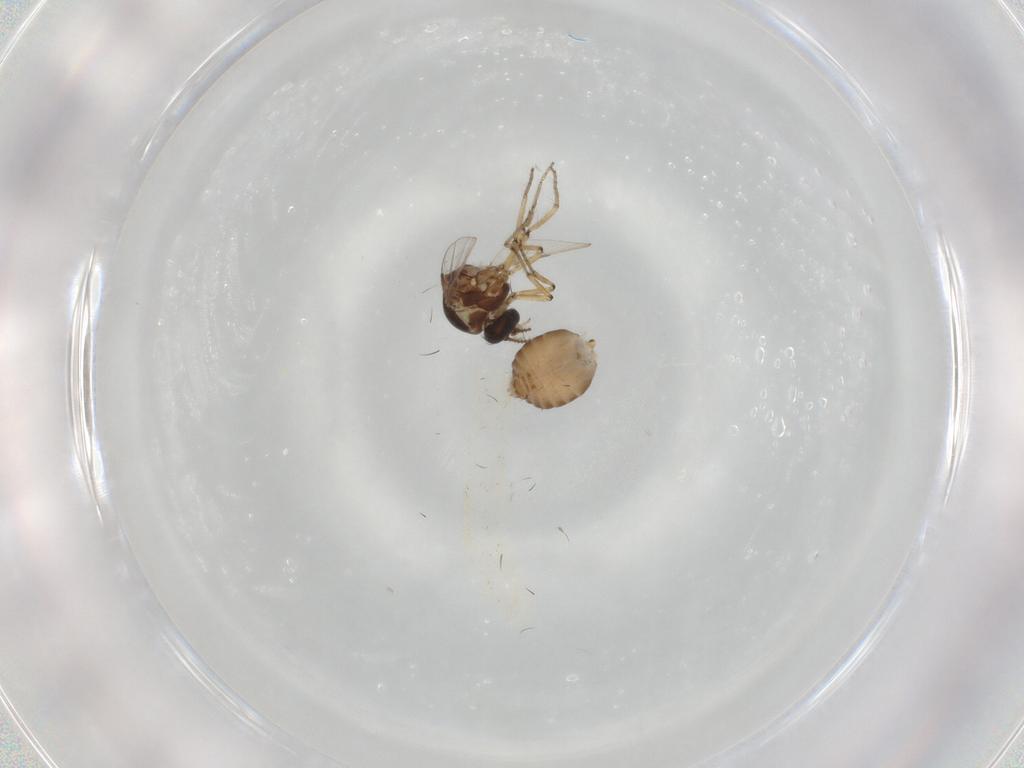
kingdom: Animalia
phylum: Arthropoda
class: Insecta
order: Diptera
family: Ceratopogonidae
